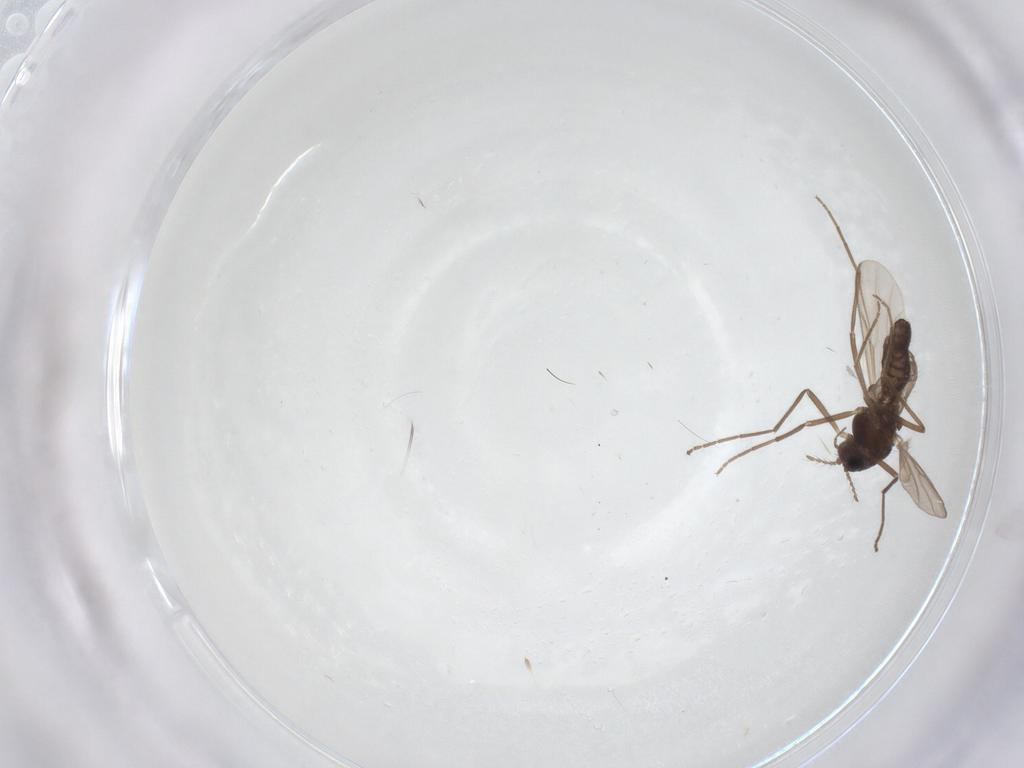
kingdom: Animalia
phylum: Arthropoda
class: Insecta
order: Diptera
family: Chironomidae
